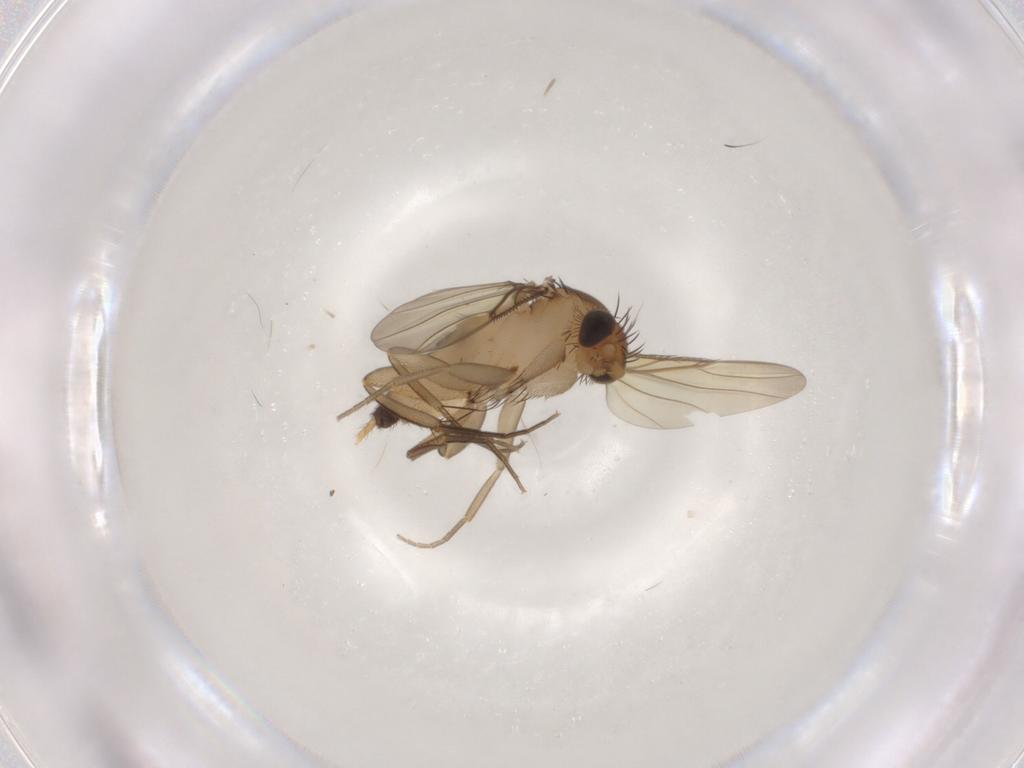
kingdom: Animalia
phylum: Arthropoda
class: Insecta
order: Diptera
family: Phoridae
